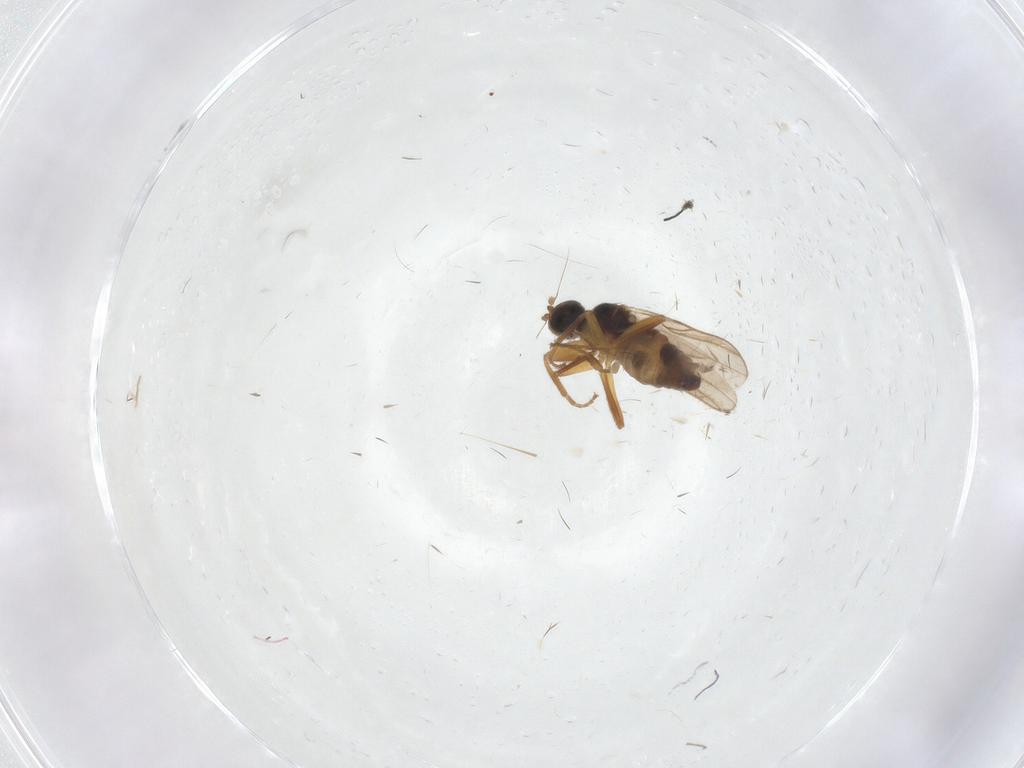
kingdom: Animalia
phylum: Arthropoda
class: Insecta
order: Diptera
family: Hybotidae
